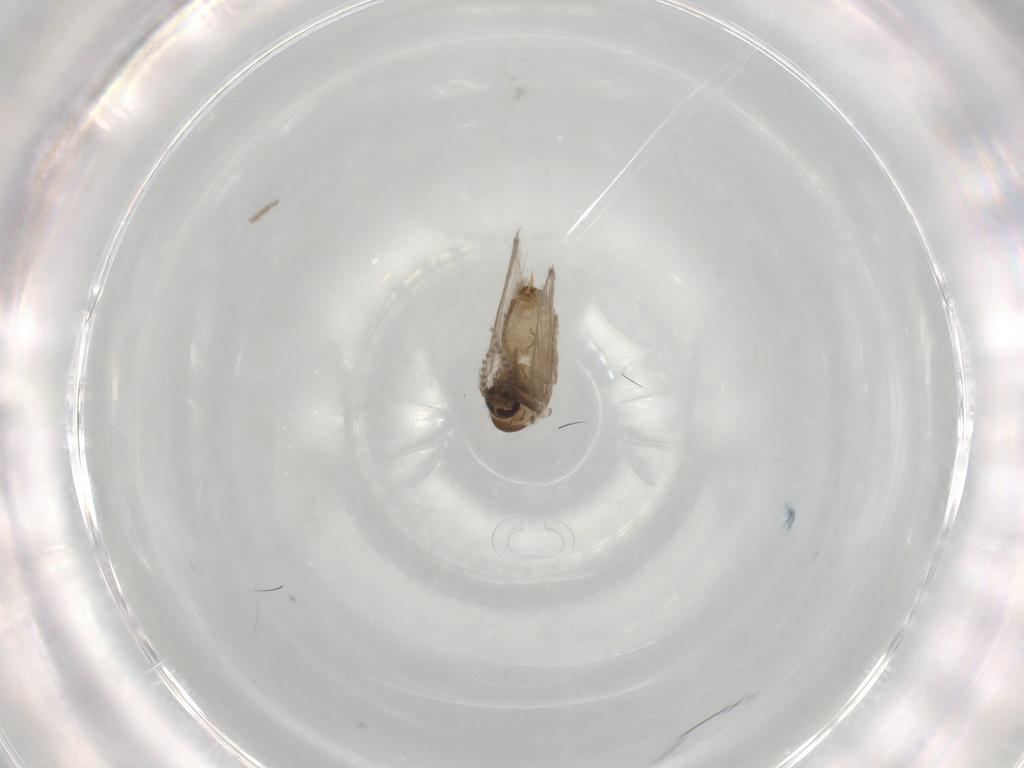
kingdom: Animalia
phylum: Arthropoda
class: Insecta
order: Diptera
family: Psychodidae
